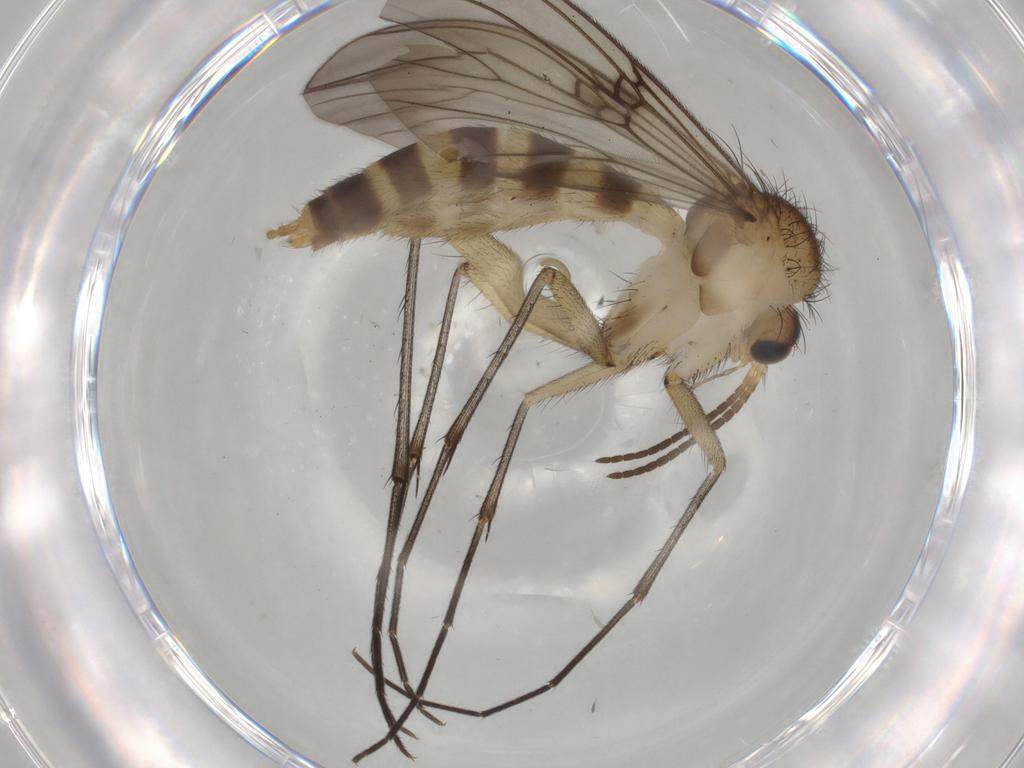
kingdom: Animalia
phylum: Arthropoda
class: Insecta
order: Diptera
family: Mycetophilidae
